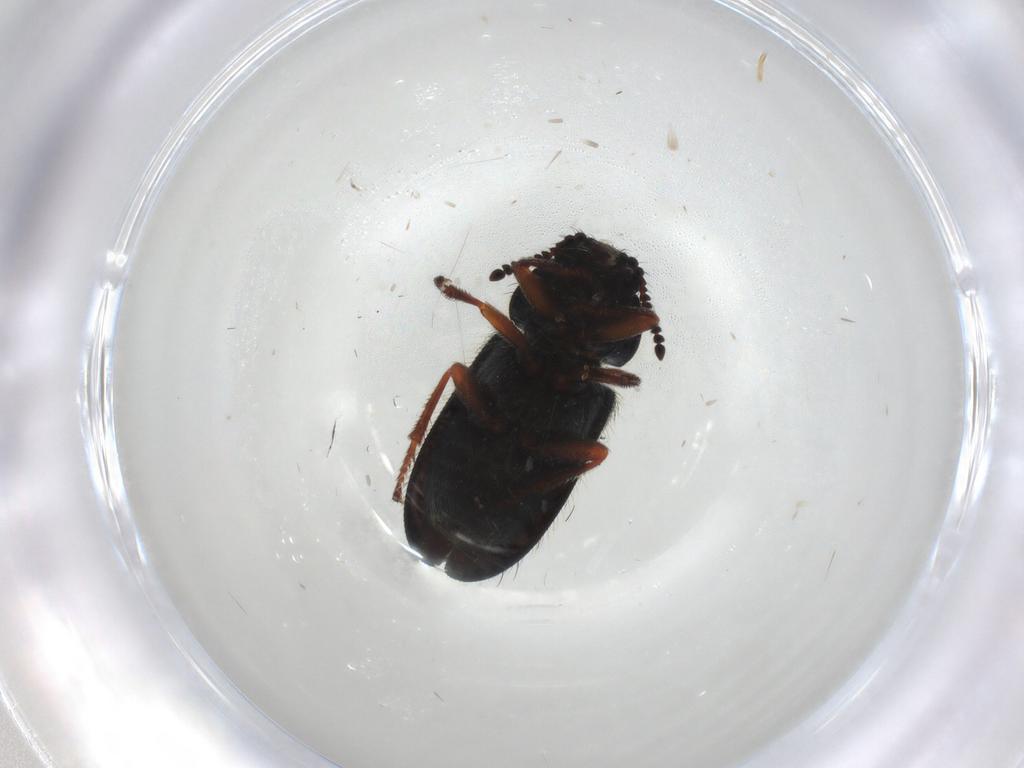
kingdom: Animalia
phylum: Arthropoda
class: Insecta
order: Coleoptera
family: Melyridae
